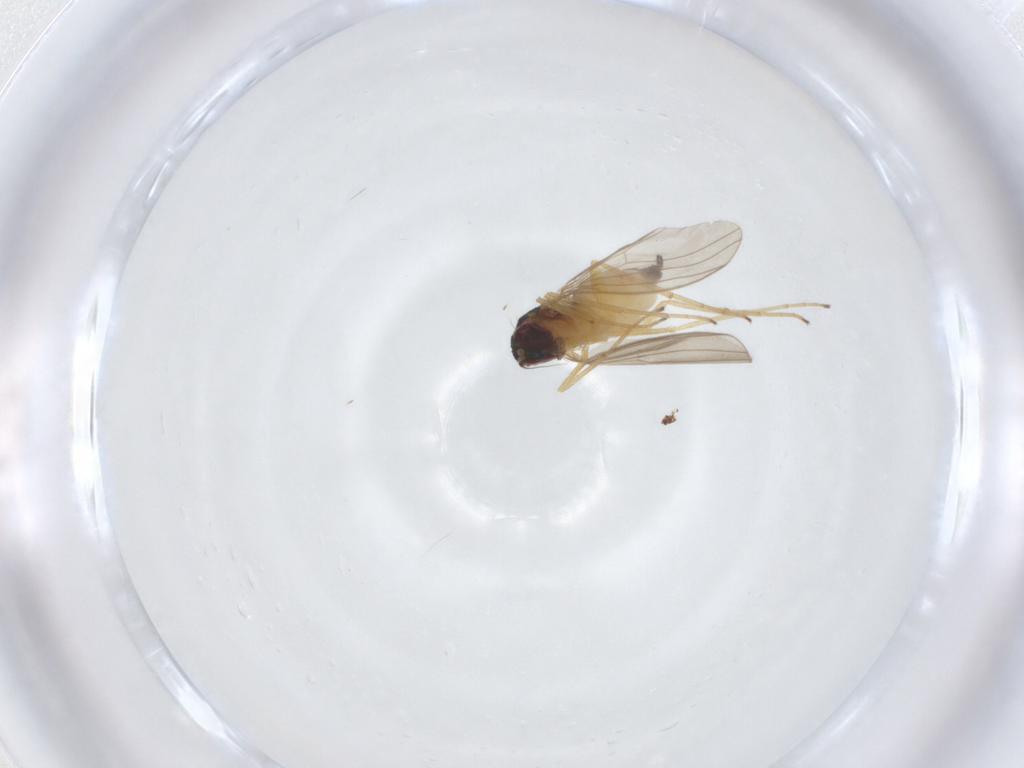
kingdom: Animalia
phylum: Arthropoda
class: Insecta
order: Diptera
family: Dolichopodidae
